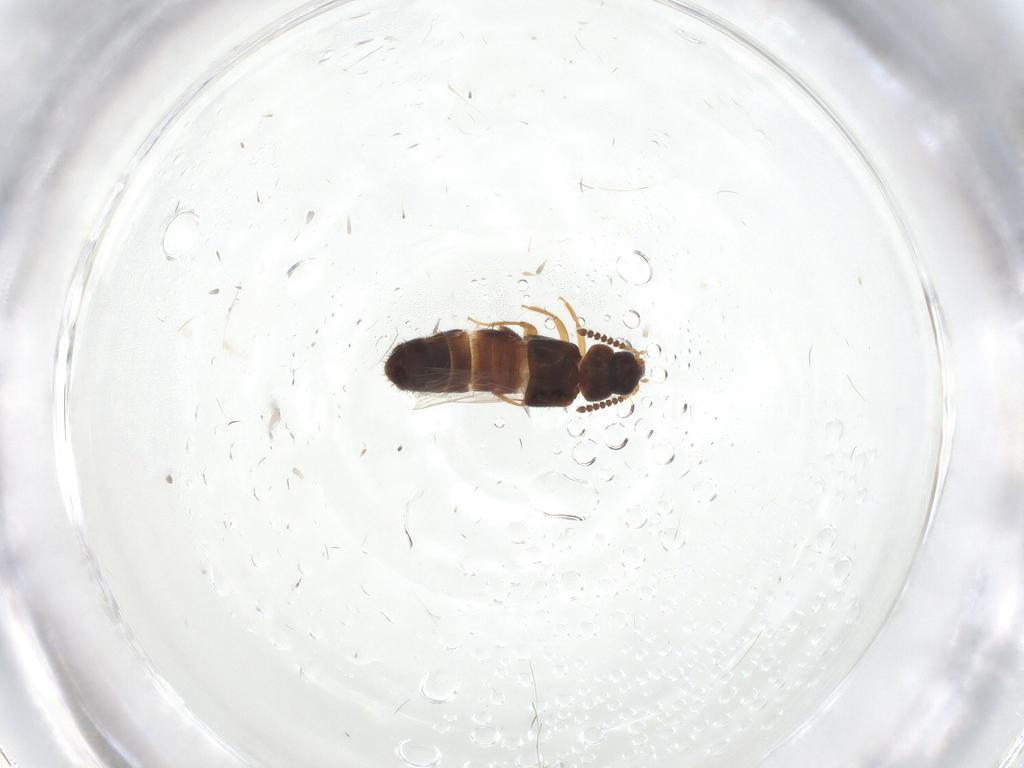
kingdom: Animalia
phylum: Arthropoda
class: Insecta
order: Coleoptera
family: Staphylinidae
